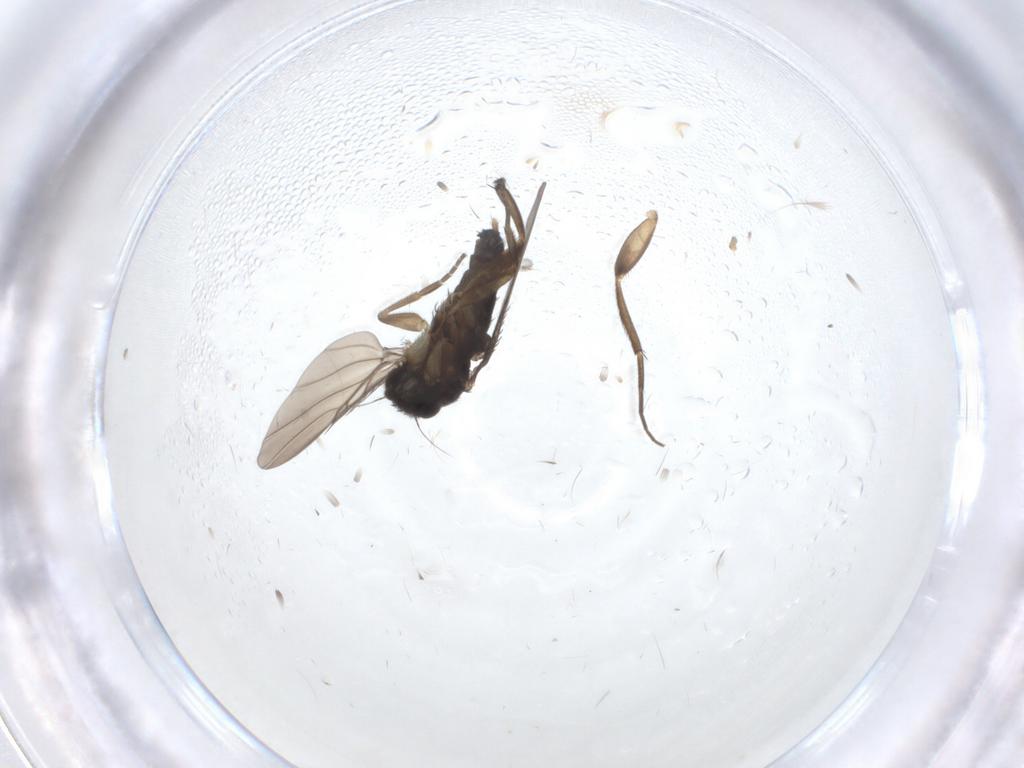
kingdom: Animalia
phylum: Arthropoda
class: Insecta
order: Diptera
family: Phoridae
